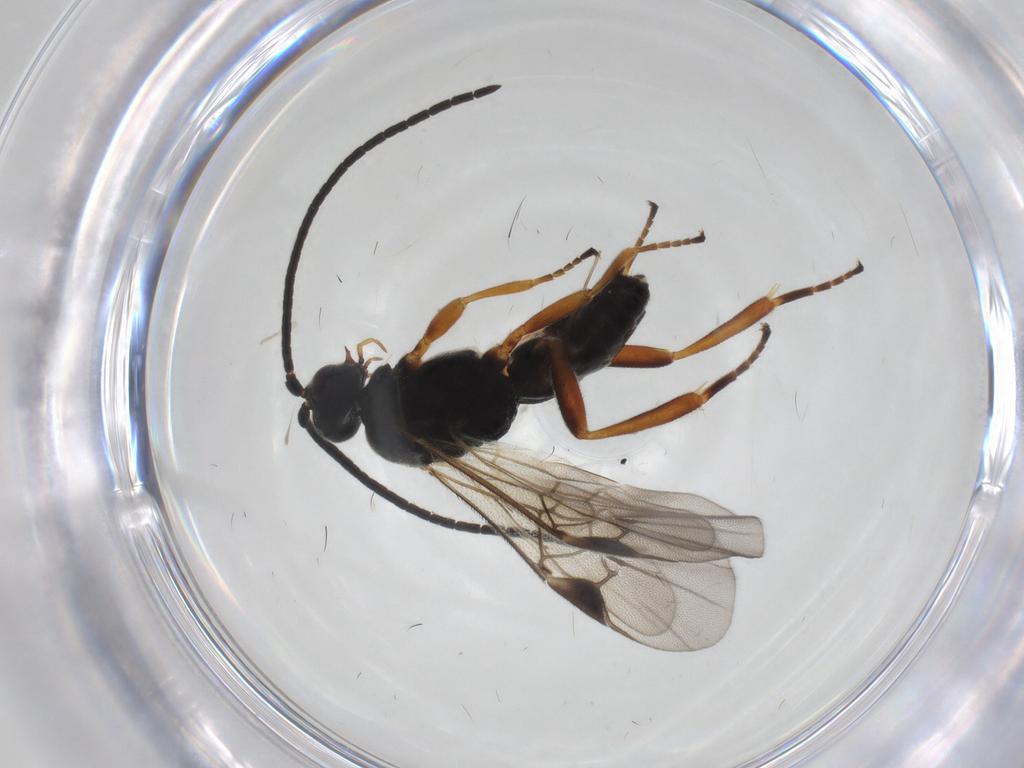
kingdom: Animalia
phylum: Arthropoda
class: Insecta
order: Hymenoptera
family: Braconidae
